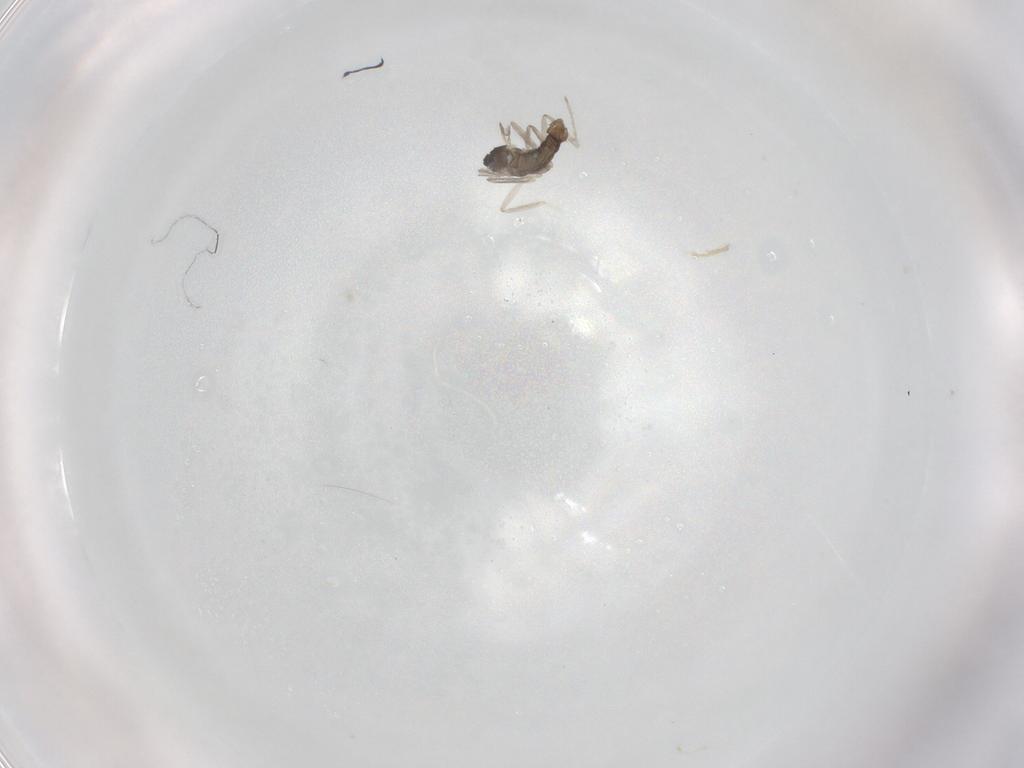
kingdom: Animalia
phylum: Arthropoda
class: Insecta
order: Diptera
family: Cecidomyiidae
